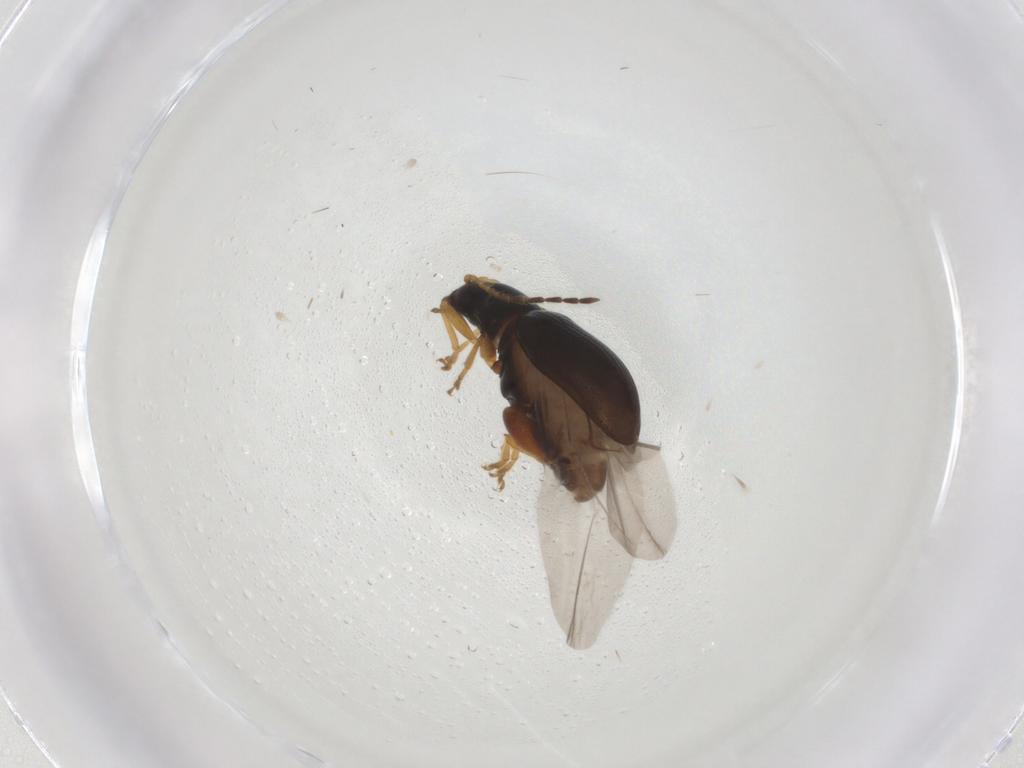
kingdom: Animalia
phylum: Arthropoda
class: Insecta
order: Coleoptera
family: Chrysomelidae
